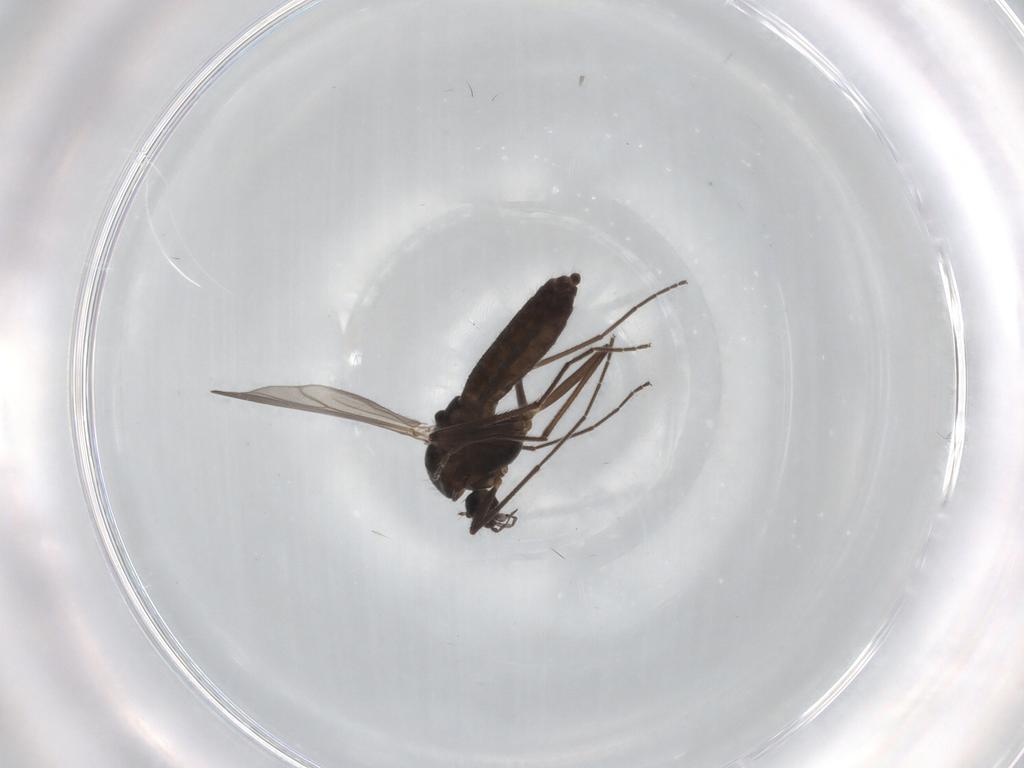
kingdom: Animalia
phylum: Arthropoda
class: Insecta
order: Diptera
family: Chironomidae
